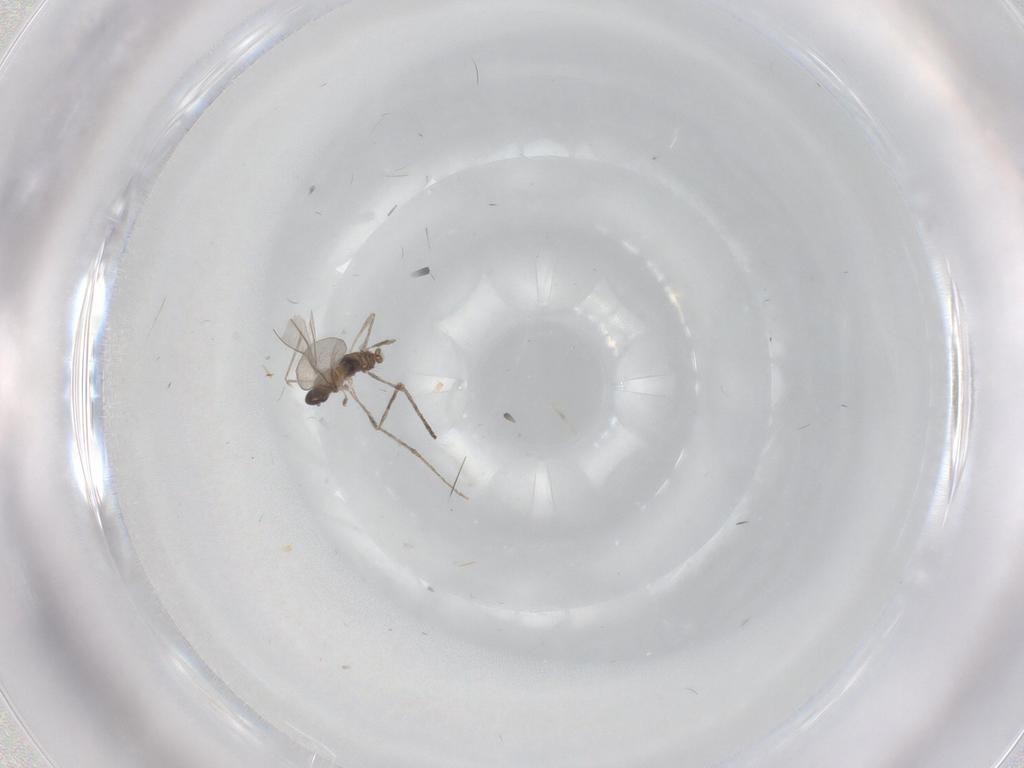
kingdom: Animalia
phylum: Arthropoda
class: Insecta
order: Diptera
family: Cecidomyiidae
